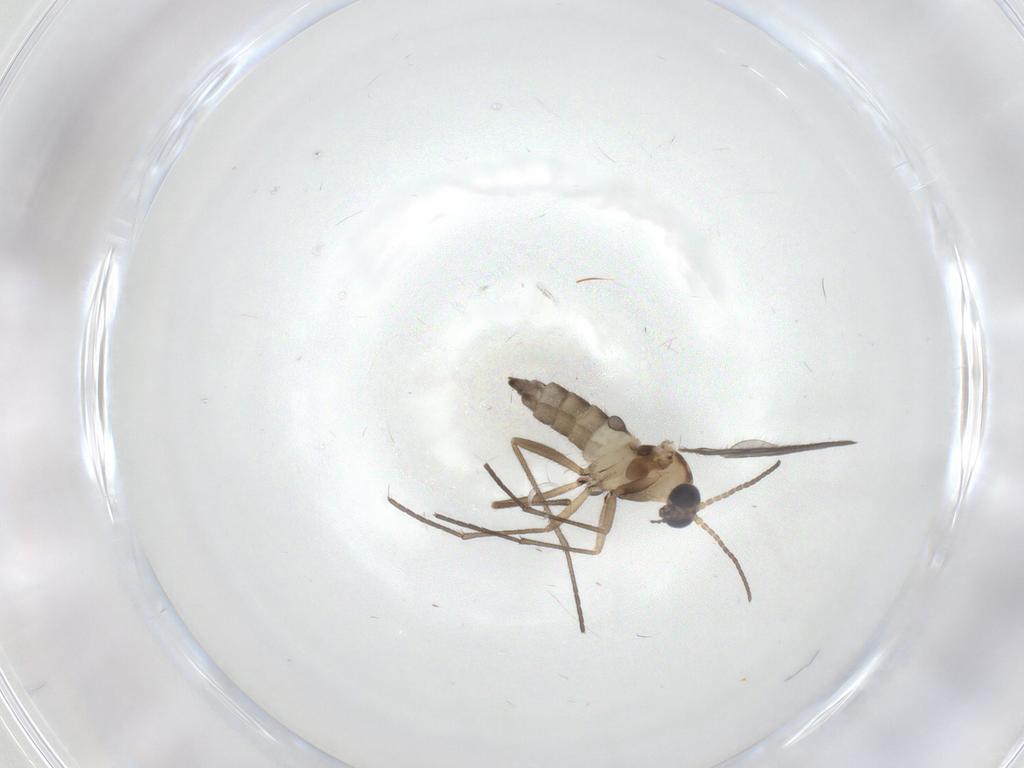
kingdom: Animalia
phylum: Arthropoda
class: Insecta
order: Diptera
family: Sciaridae
